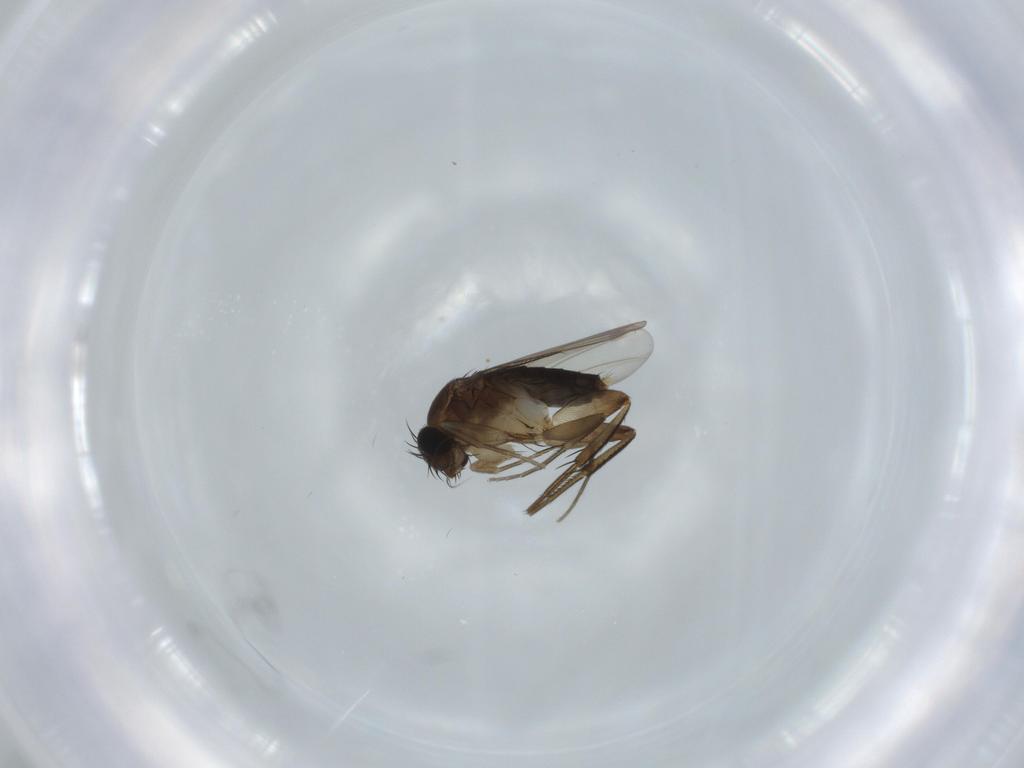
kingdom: Animalia
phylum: Arthropoda
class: Insecta
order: Diptera
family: Phoridae
